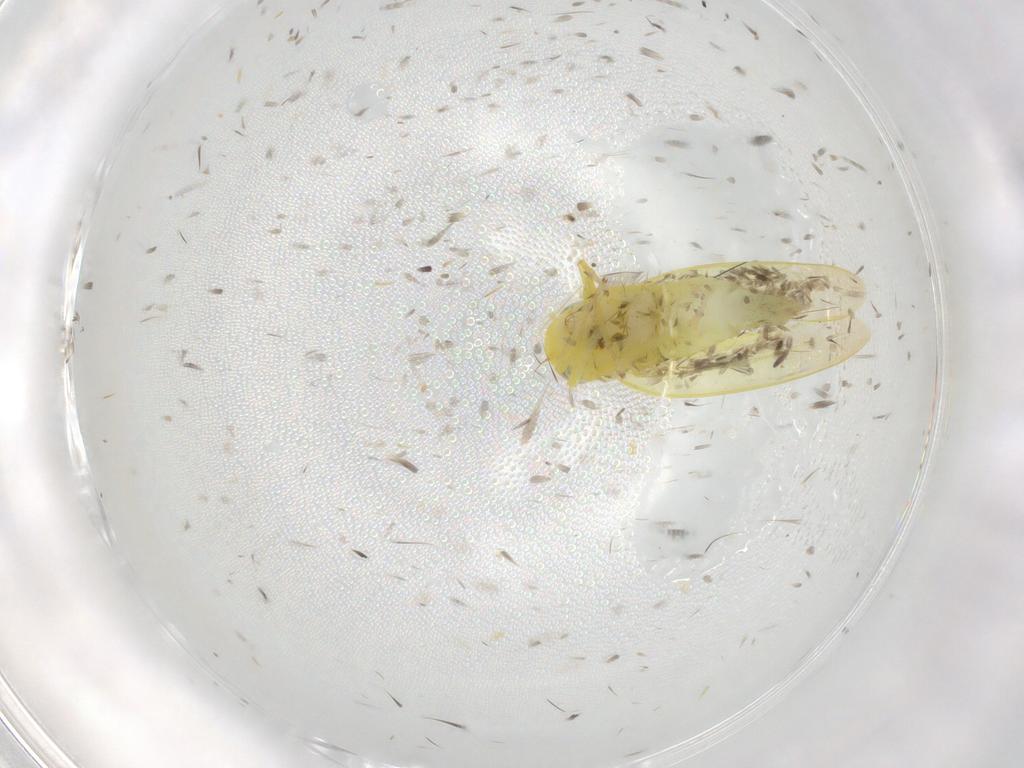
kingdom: Animalia
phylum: Arthropoda
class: Insecta
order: Hemiptera
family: Cicadellidae
